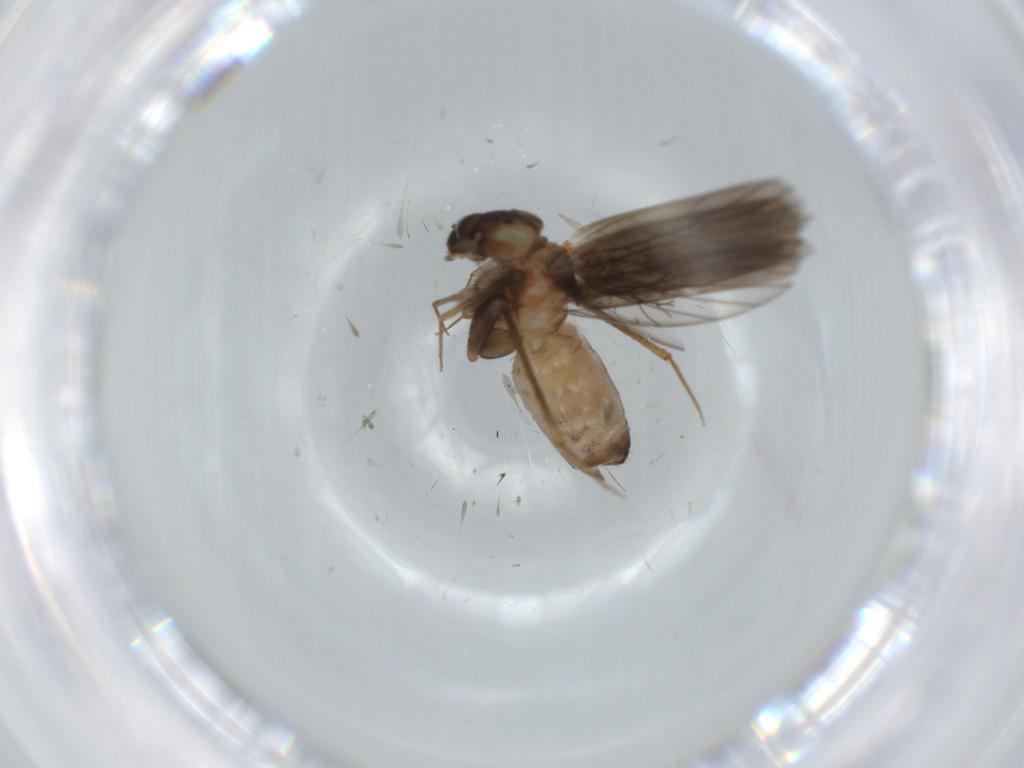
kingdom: Animalia
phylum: Arthropoda
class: Insecta
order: Psocodea
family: Lepidopsocidae
